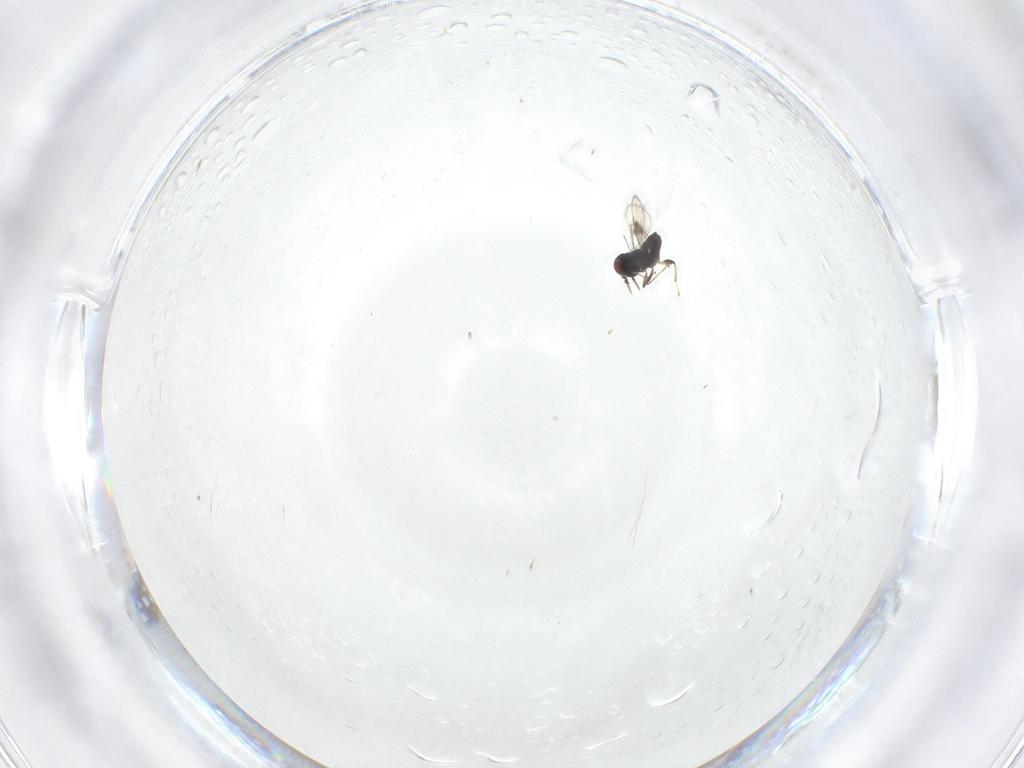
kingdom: Animalia
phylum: Arthropoda
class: Insecta
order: Hymenoptera
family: Eulophidae
